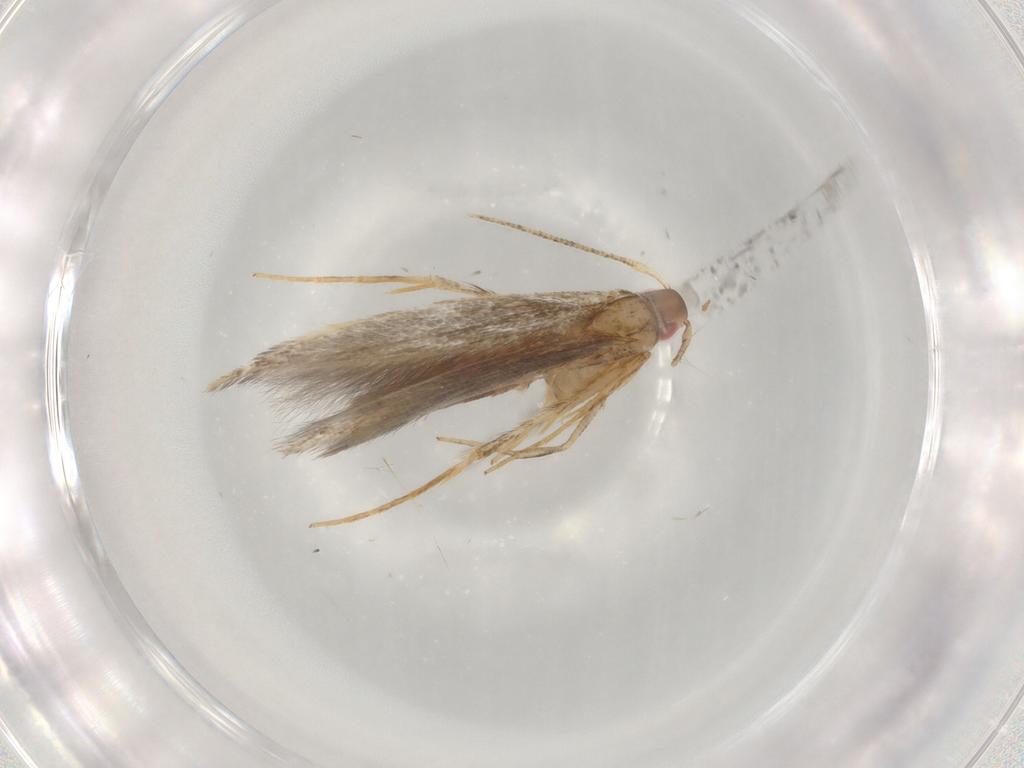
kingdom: Animalia
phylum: Arthropoda
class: Insecta
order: Lepidoptera
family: Cosmopterigidae
